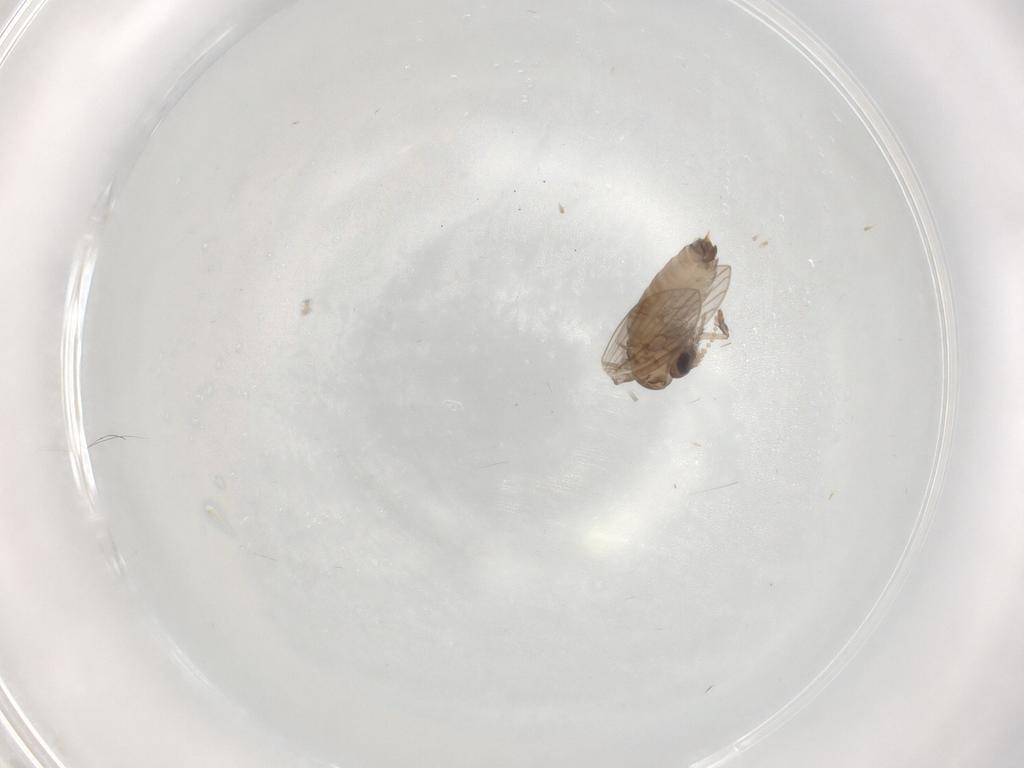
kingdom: Animalia
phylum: Arthropoda
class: Insecta
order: Diptera
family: Psychodidae
